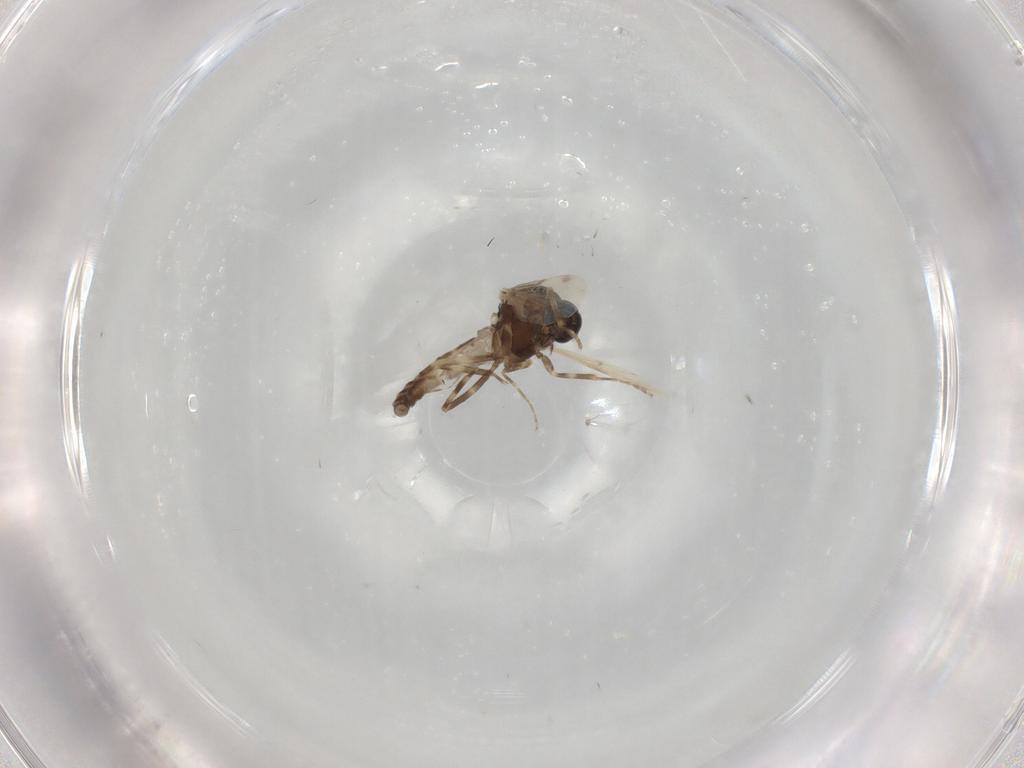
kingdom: Animalia
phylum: Arthropoda
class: Insecta
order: Diptera
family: Ceratopogonidae
